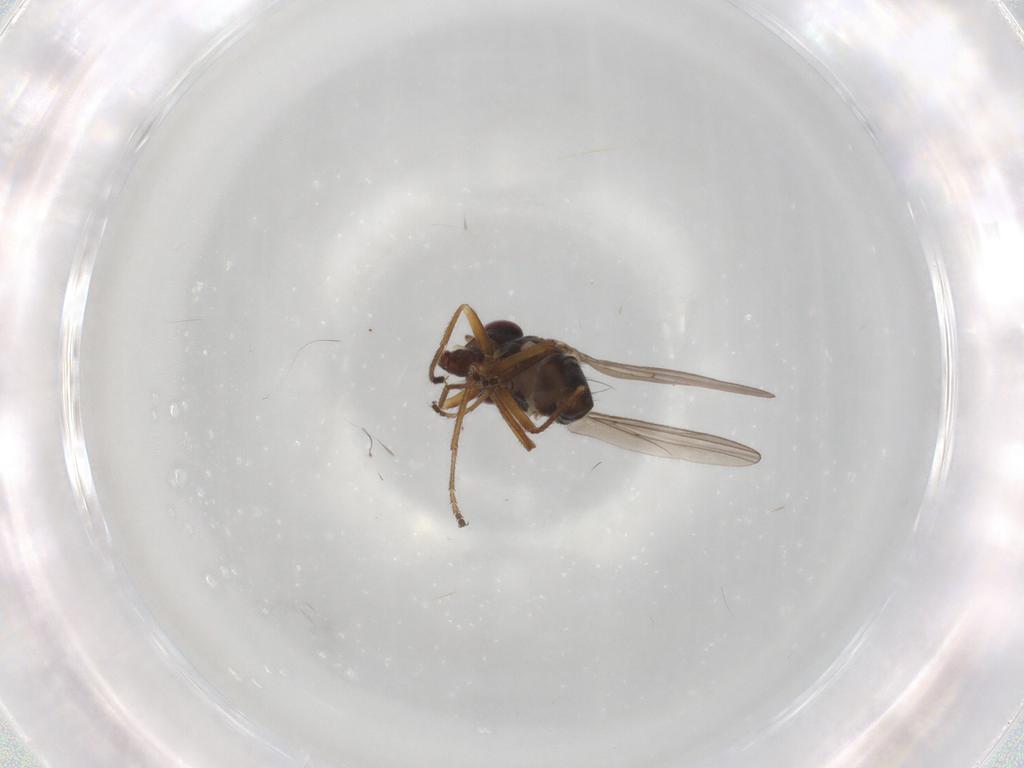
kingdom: Animalia
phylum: Arthropoda
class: Insecta
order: Diptera
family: Ephydridae
